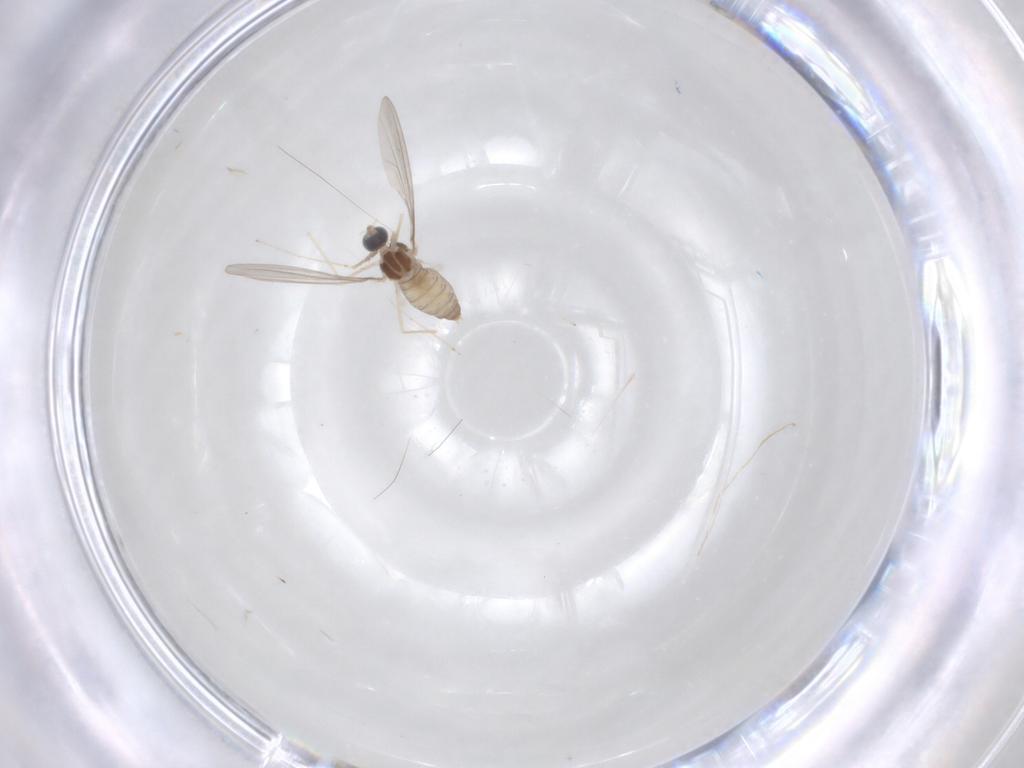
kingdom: Animalia
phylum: Arthropoda
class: Insecta
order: Diptera
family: Cecidomyiidae
